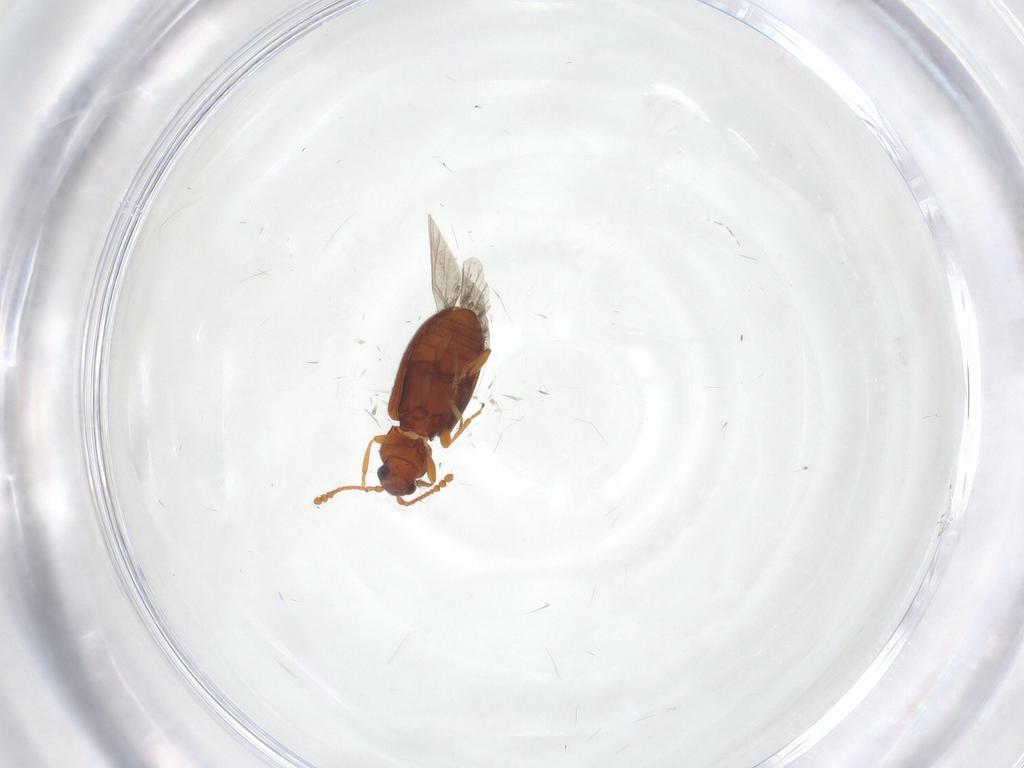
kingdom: Animalia
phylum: Arthropoda
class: Insecta
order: Coleoptera
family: Cryptophagidae
